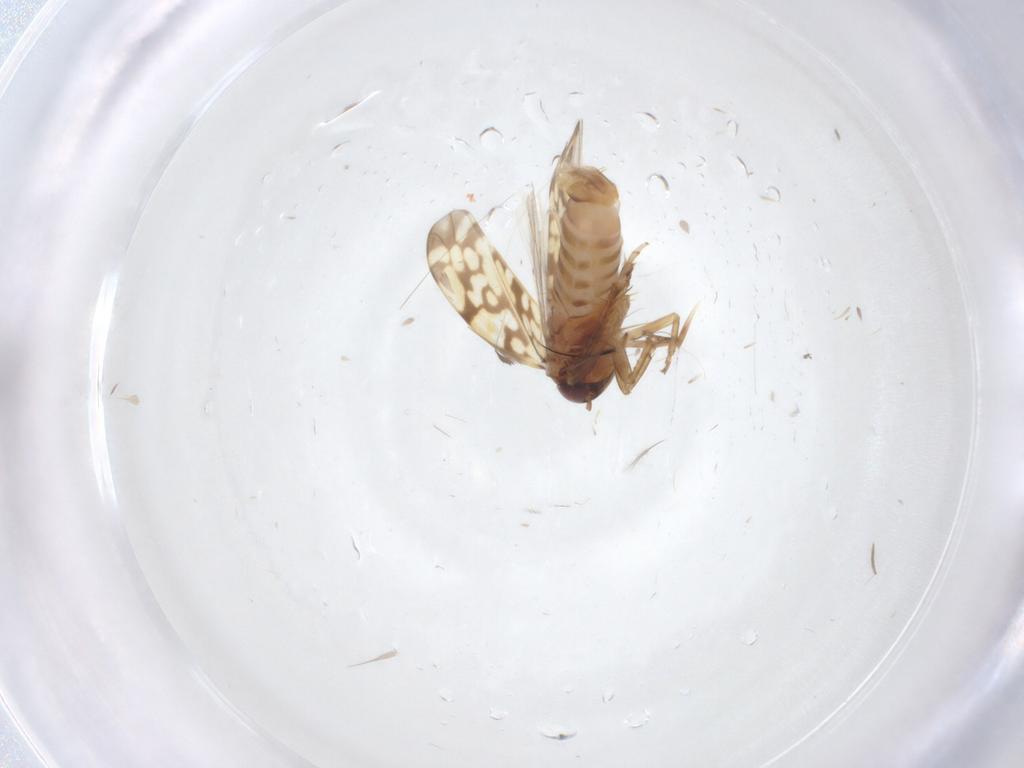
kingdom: Animalia
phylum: Arthropoda
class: Insecta
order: Hemiptera
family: Cicadellidae
